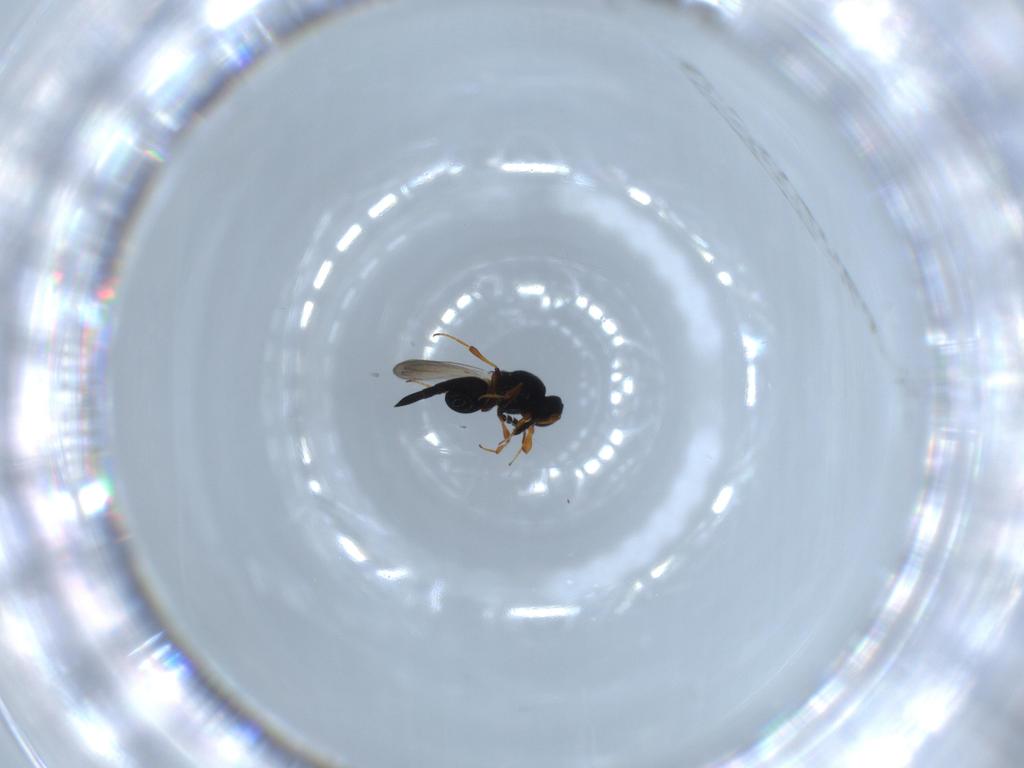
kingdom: Animalia
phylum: Arthropoda
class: Insecta
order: Hymenoptera
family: Platygastridae
